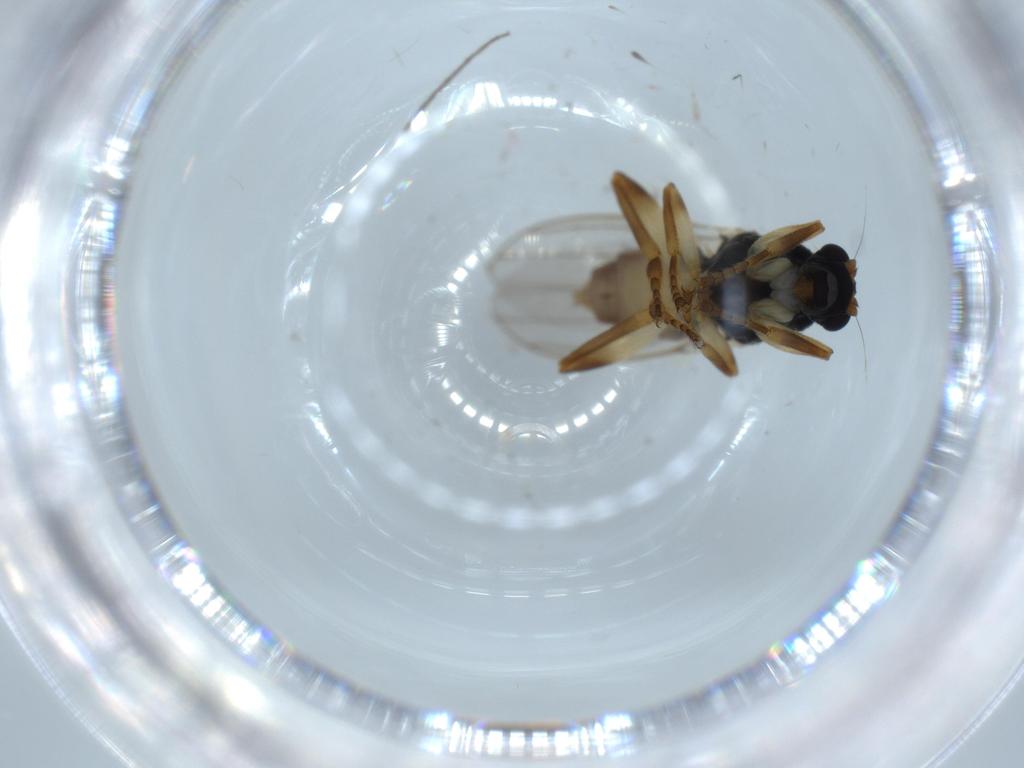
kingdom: Animalia
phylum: Arthropoda
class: Insecta
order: Diptera
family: Sphaeroceridae
